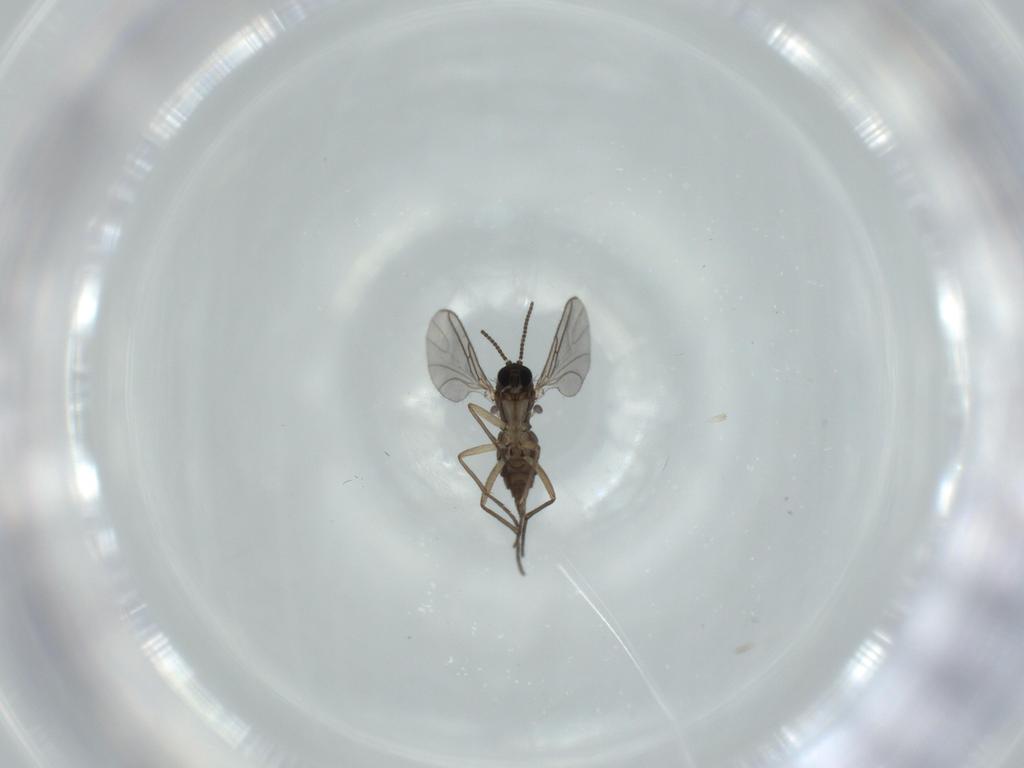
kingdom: Animalia
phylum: Arthropoda
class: Insecta
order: Diptera
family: Sciaridae
